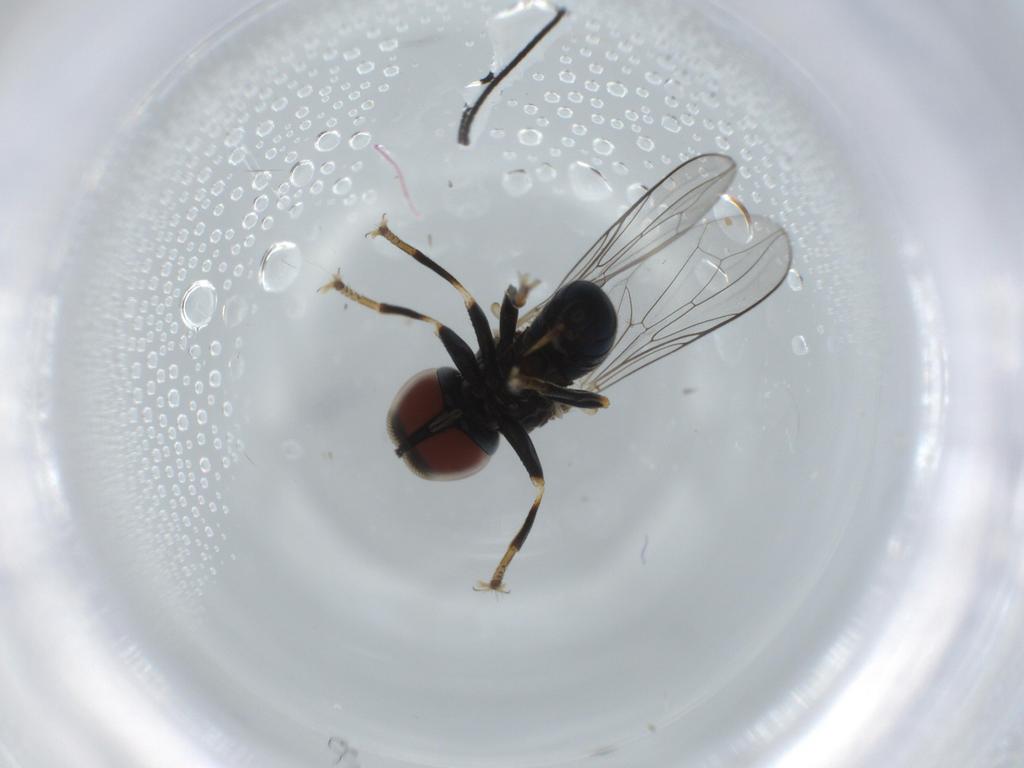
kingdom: Animalia
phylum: Arthropoda
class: Insecta
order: Diptera
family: Pipunculidae
